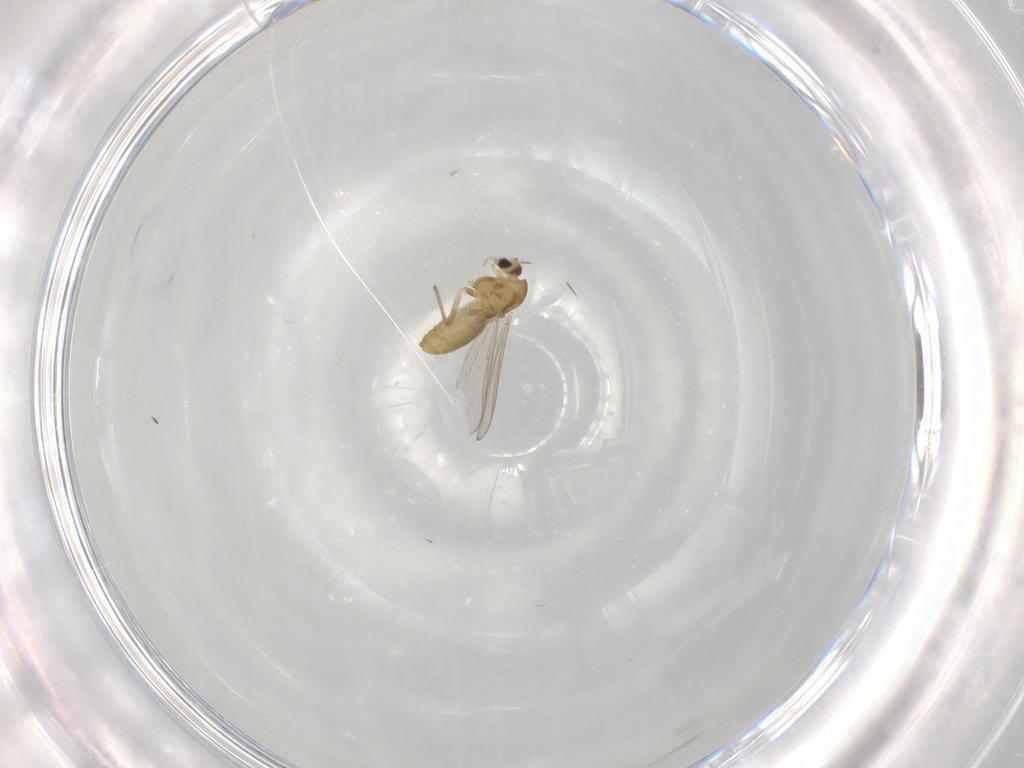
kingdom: Animalia
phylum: Arthropoda
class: Insecta
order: Diptera
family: Chironomidae
